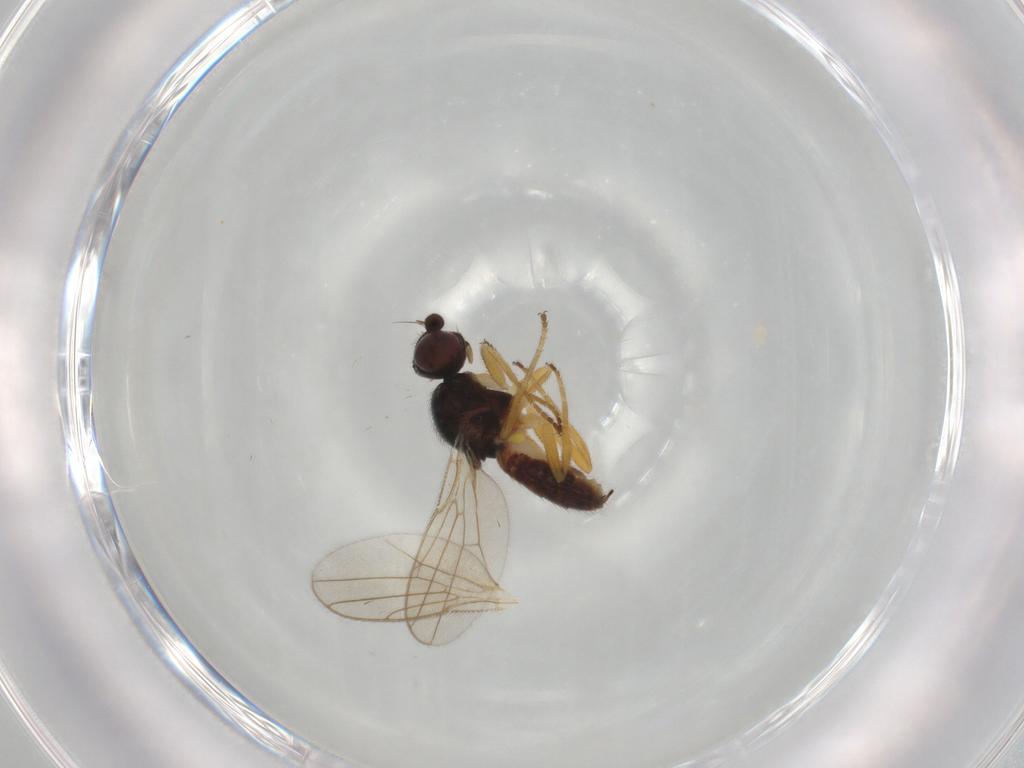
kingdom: Animalia
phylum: Arthropoda
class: Insecta
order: Diptera
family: Chloropidae
